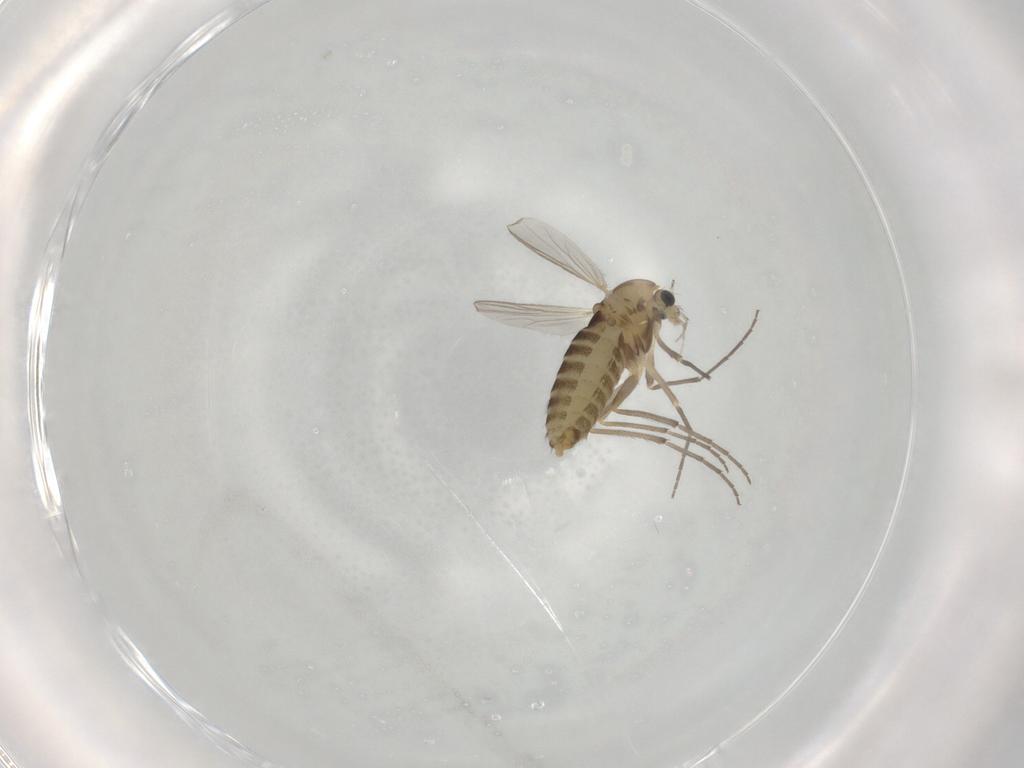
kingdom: Animalia
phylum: Arthropoda
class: Insecta
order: Diptera
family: Chironomidae
